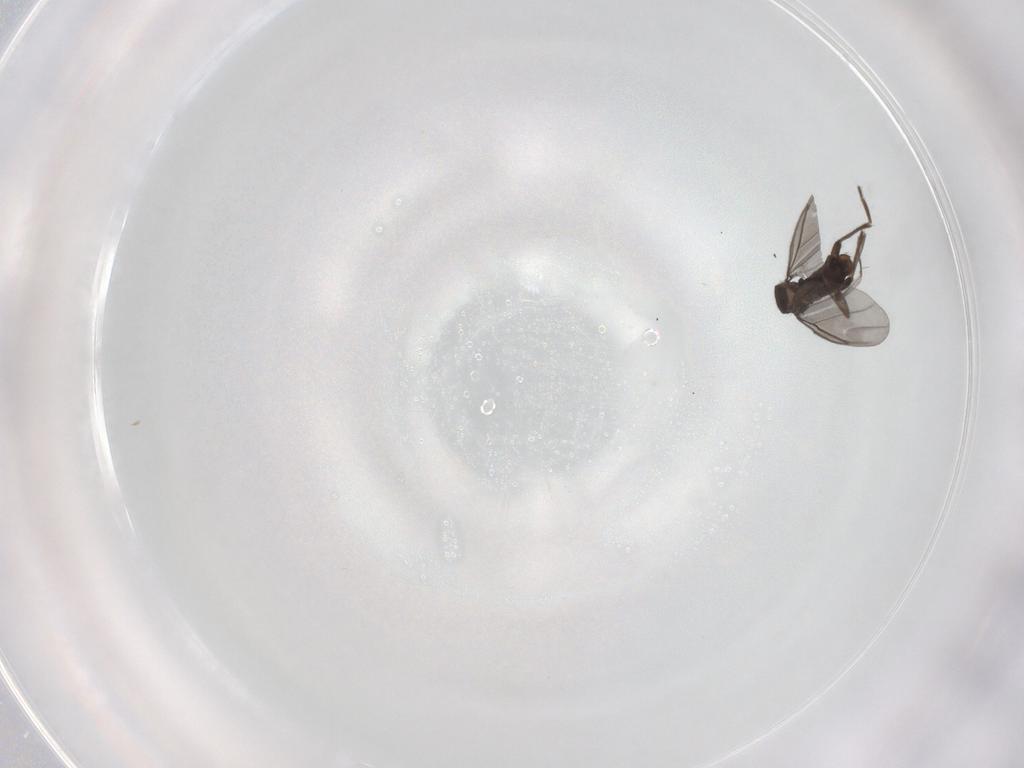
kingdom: Animalia
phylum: Arthropoda
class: Insecta
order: Diptera
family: Phoridae
